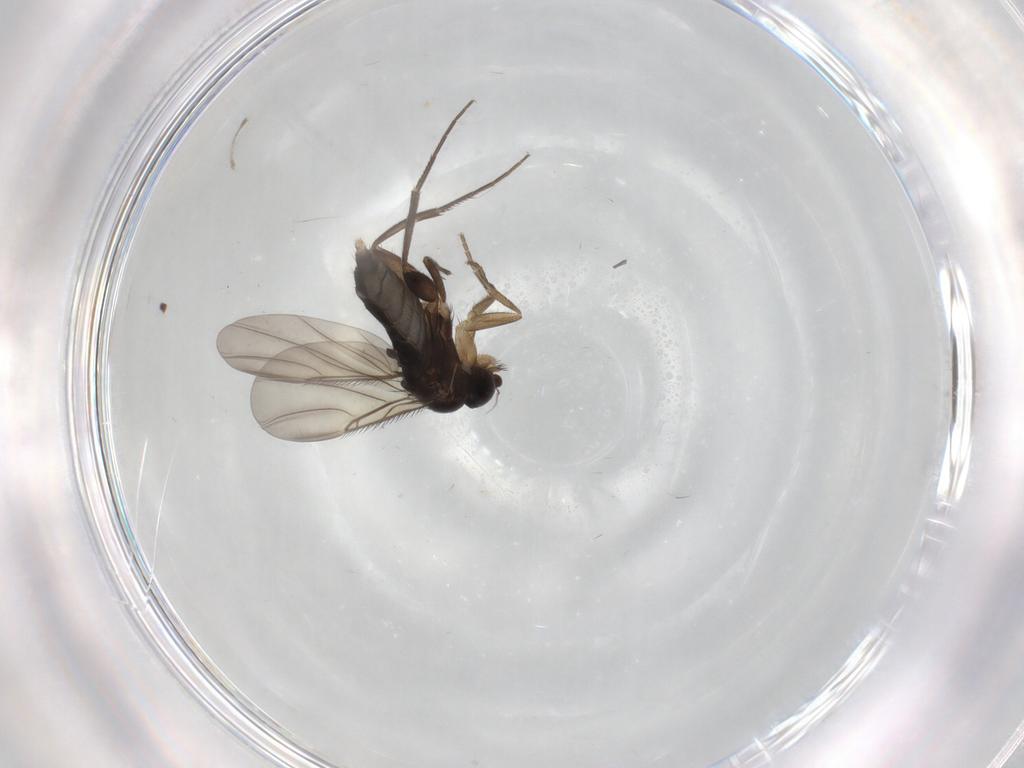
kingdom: Animalia
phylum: Arthropoda
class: Insecta
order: Diptera
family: Phoridae
